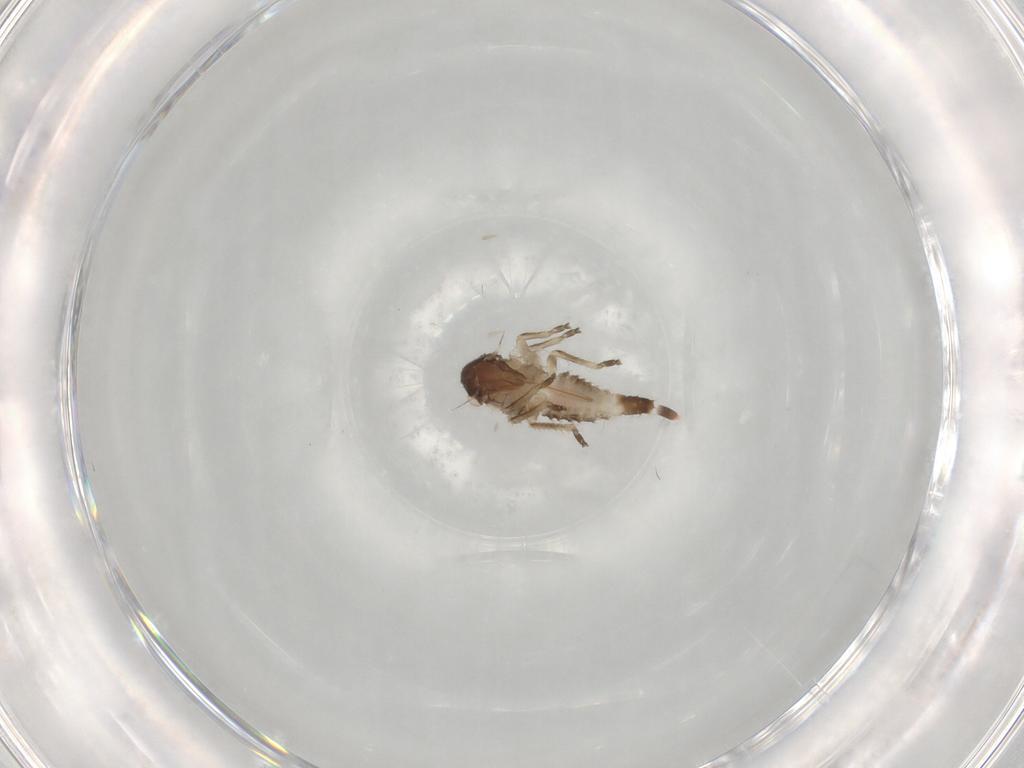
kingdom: Animalia
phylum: Arthropoda
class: Insecta
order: Hemiptera
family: Membracidae
